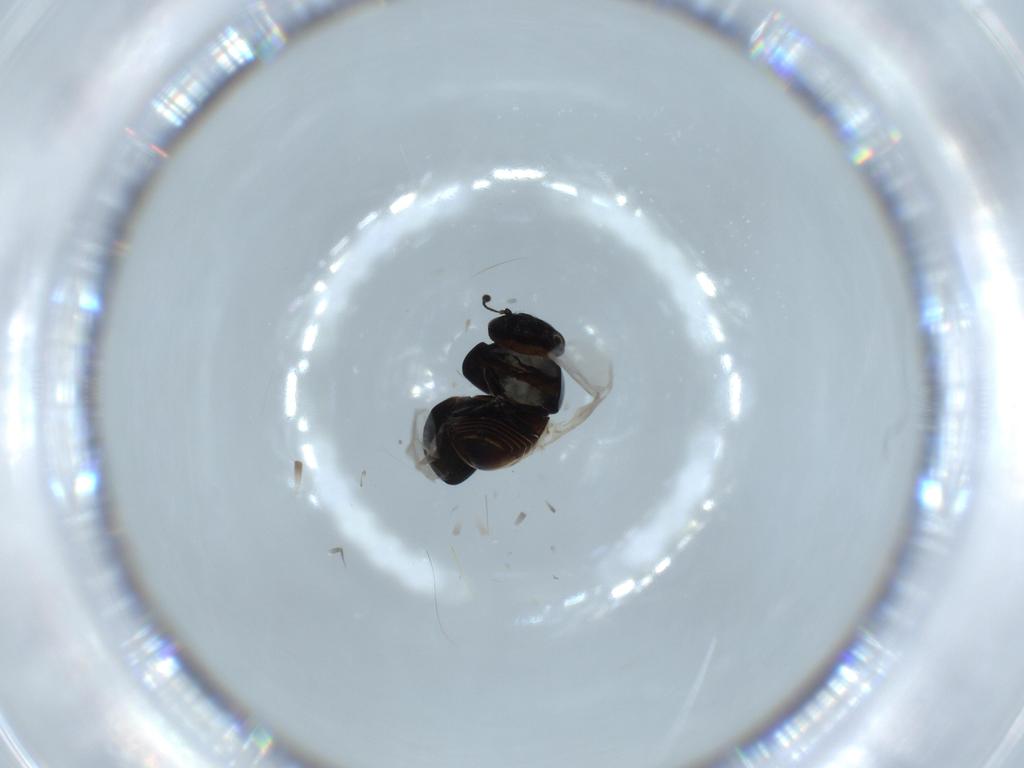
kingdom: Animalia
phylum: Arthropoda
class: Insecta
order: Coleoptera
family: Cybocephalidae
